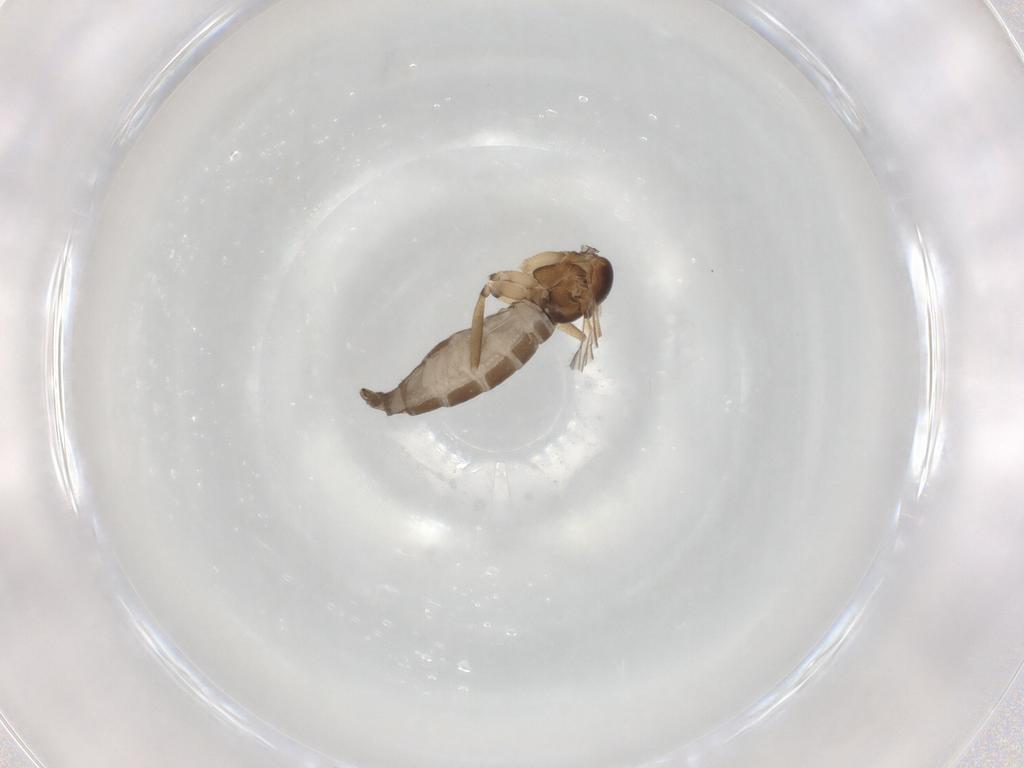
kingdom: Animalia
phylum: Arthropoda
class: Insecta
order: Diptera
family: Sciaridae
